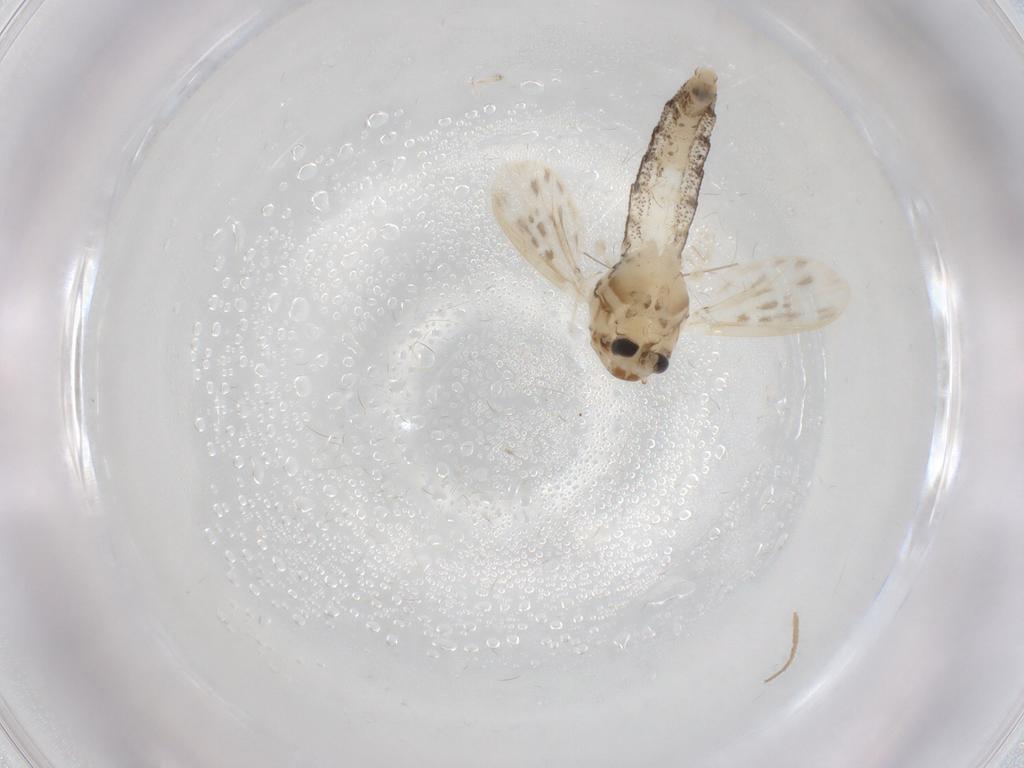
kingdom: Animalia
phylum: Arthropoda
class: Insecta
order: Diptera
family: Chaoboridae
